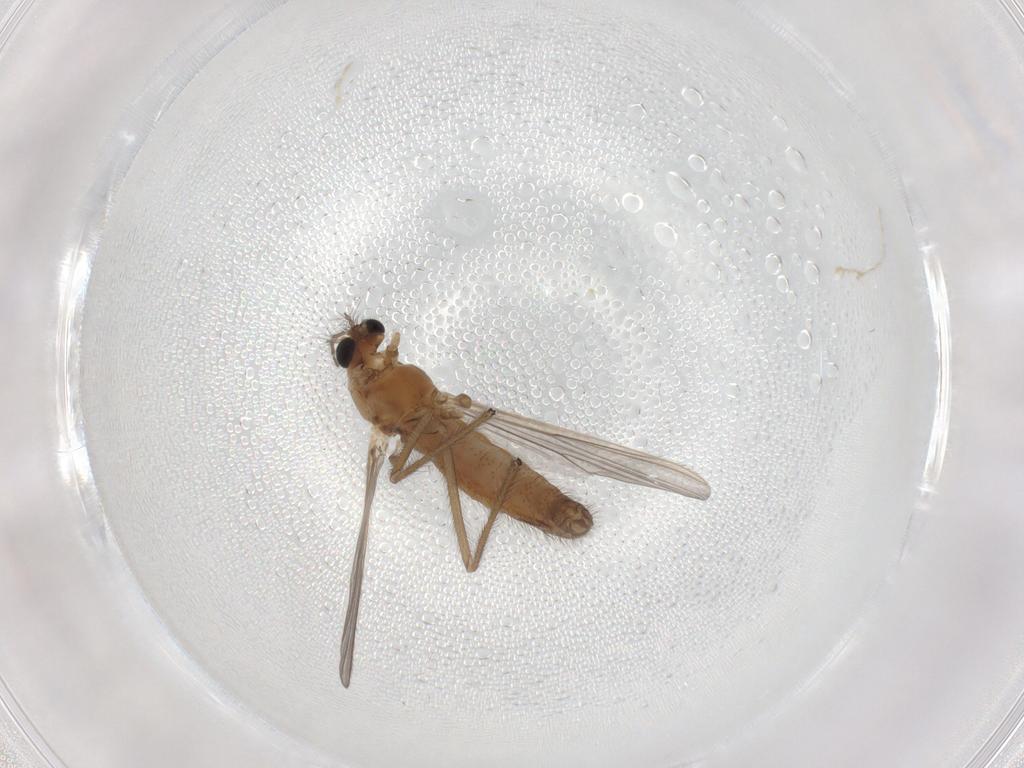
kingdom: Animalia
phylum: Arthropoda
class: Insecta
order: Diptera
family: Chironomidae
